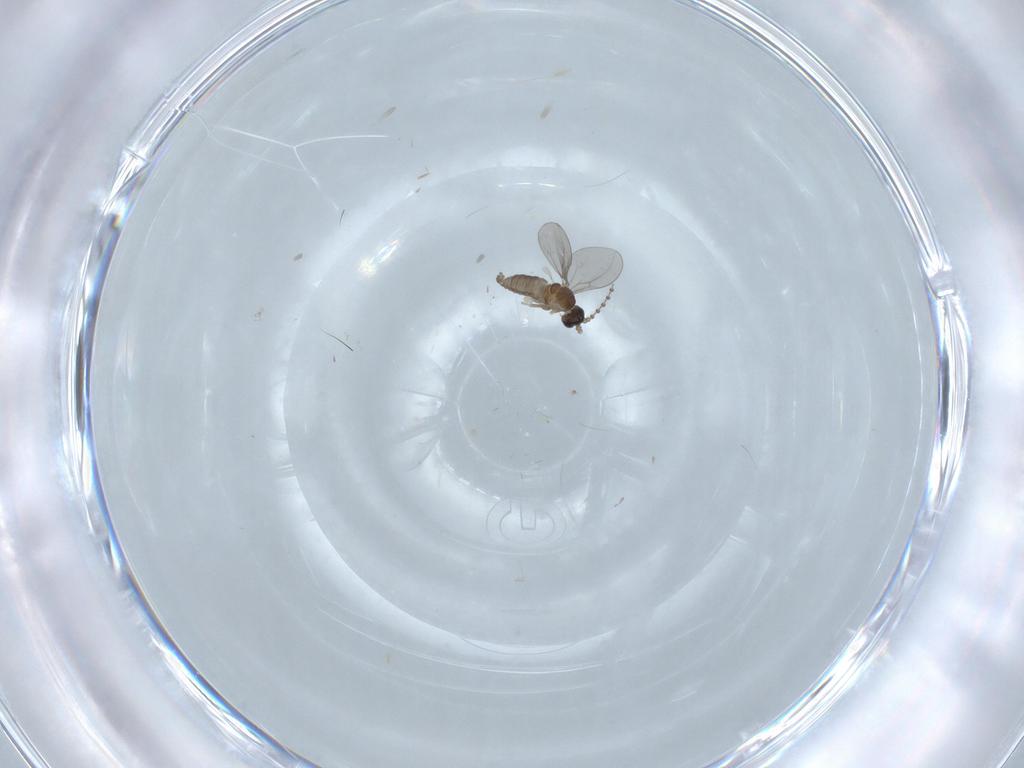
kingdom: Animalia
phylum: Arthropoda
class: Insecta
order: Diptera
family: Cecidomyiidae
